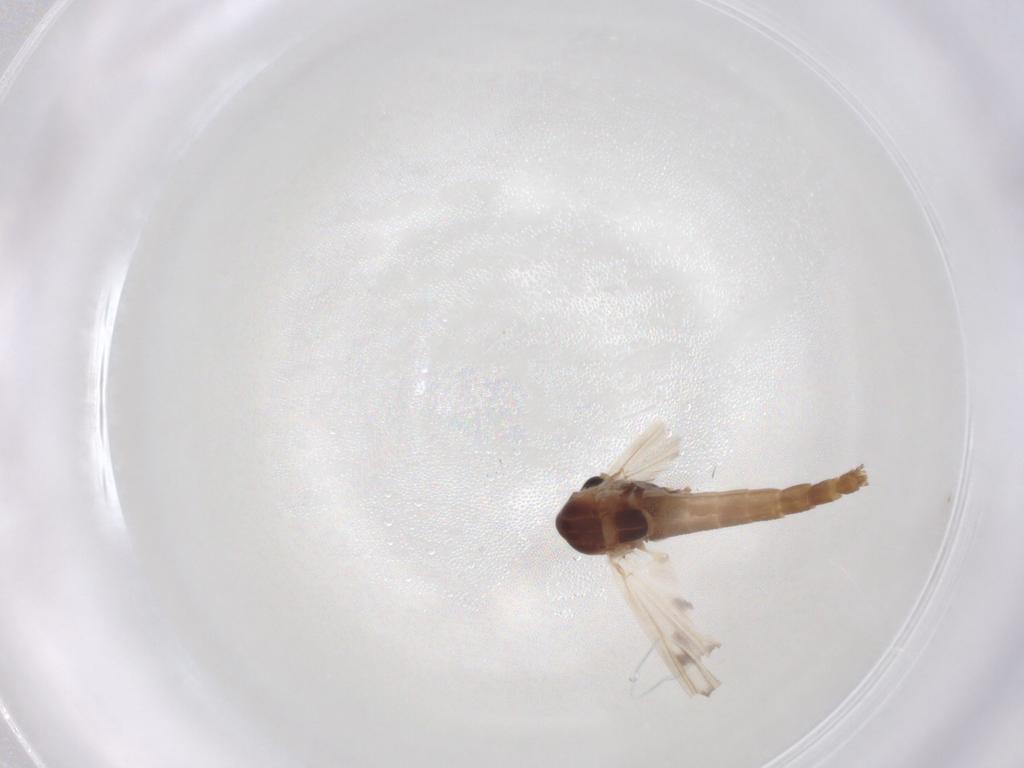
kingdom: Animalia
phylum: Arthropoda
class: Insecta
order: Diptera
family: Chironomidae
